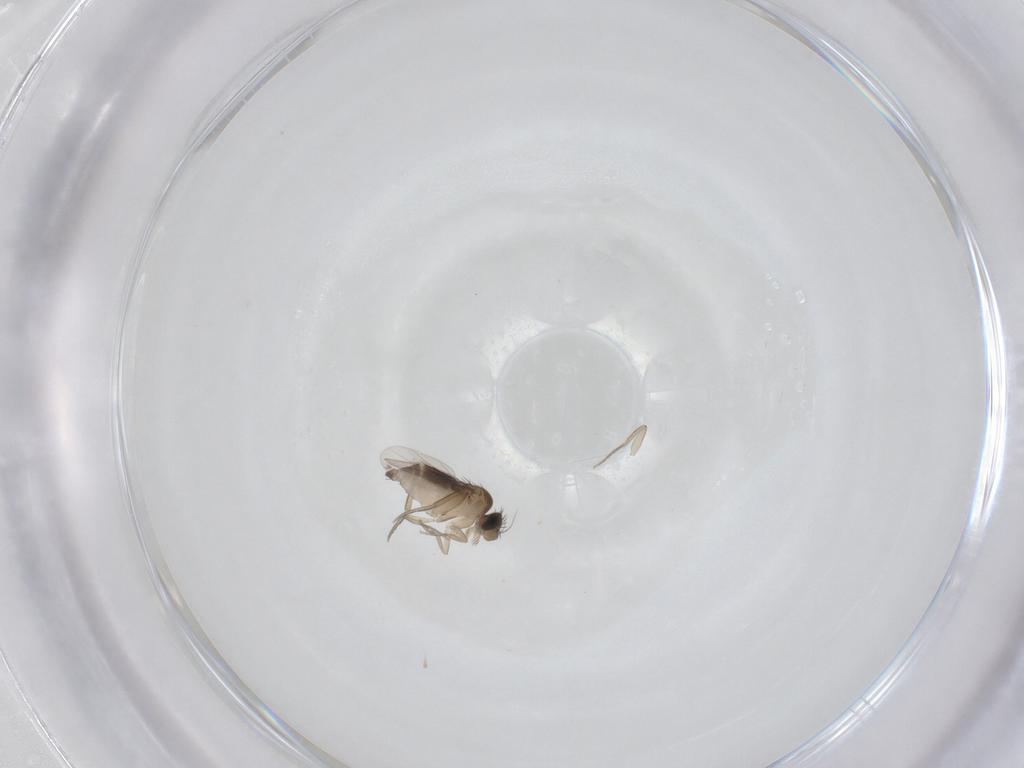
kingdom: Animalia
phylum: Arthropoda
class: Insecta
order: Diptera
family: Phoridae
